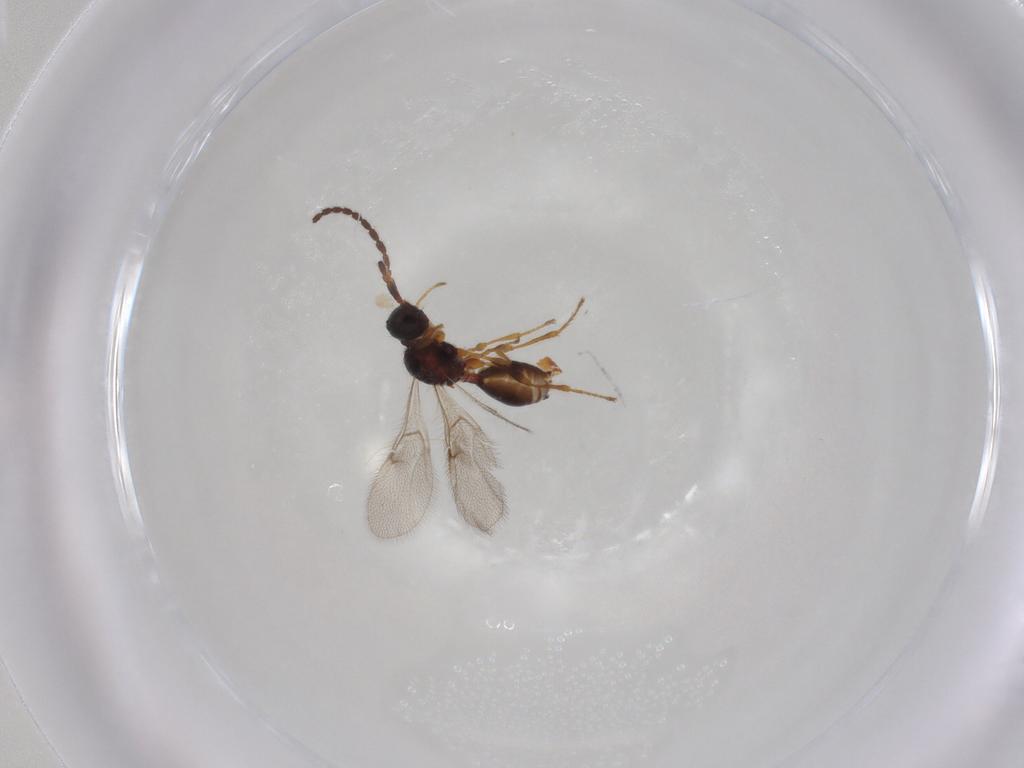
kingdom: Animalia
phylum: Arthropoda
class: Insecta
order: Hymenoptera
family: Diapriidae
